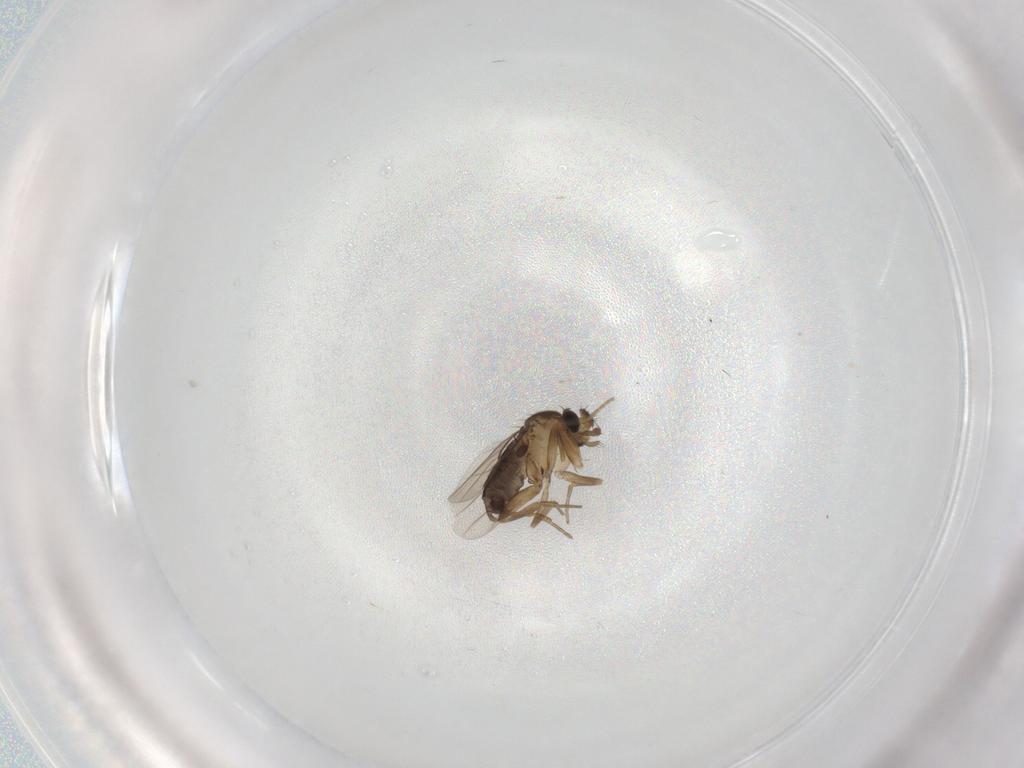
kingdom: Animalia
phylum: Arthropoda
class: Insecta
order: Diptera
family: Phoridae
